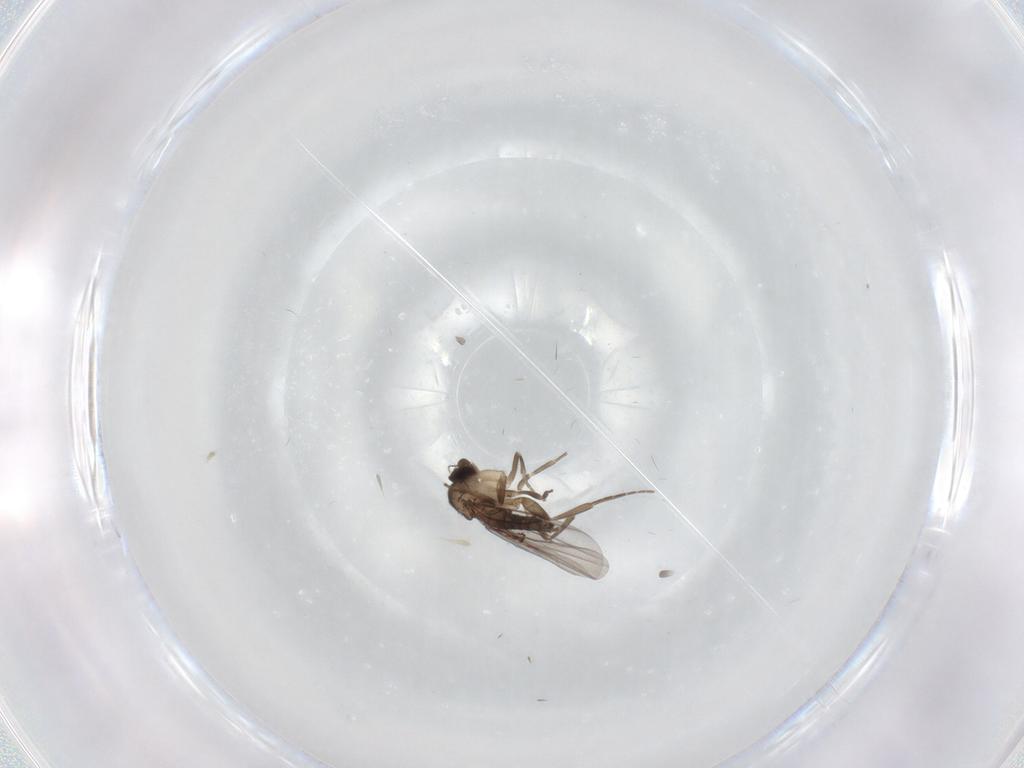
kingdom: Animalia
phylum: Arthropoda
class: Insecta
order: Diptera
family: Phoridae
